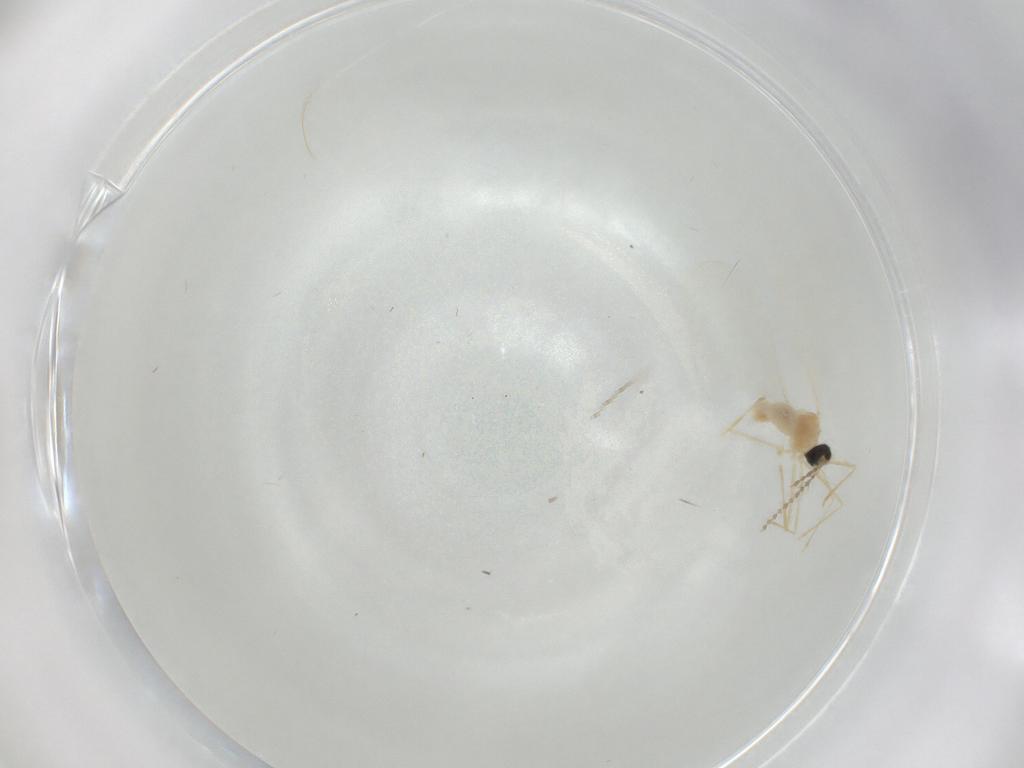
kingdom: Animalia
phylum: Arthropoda
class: Insecta
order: Diptera
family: Cecidomyiidae
